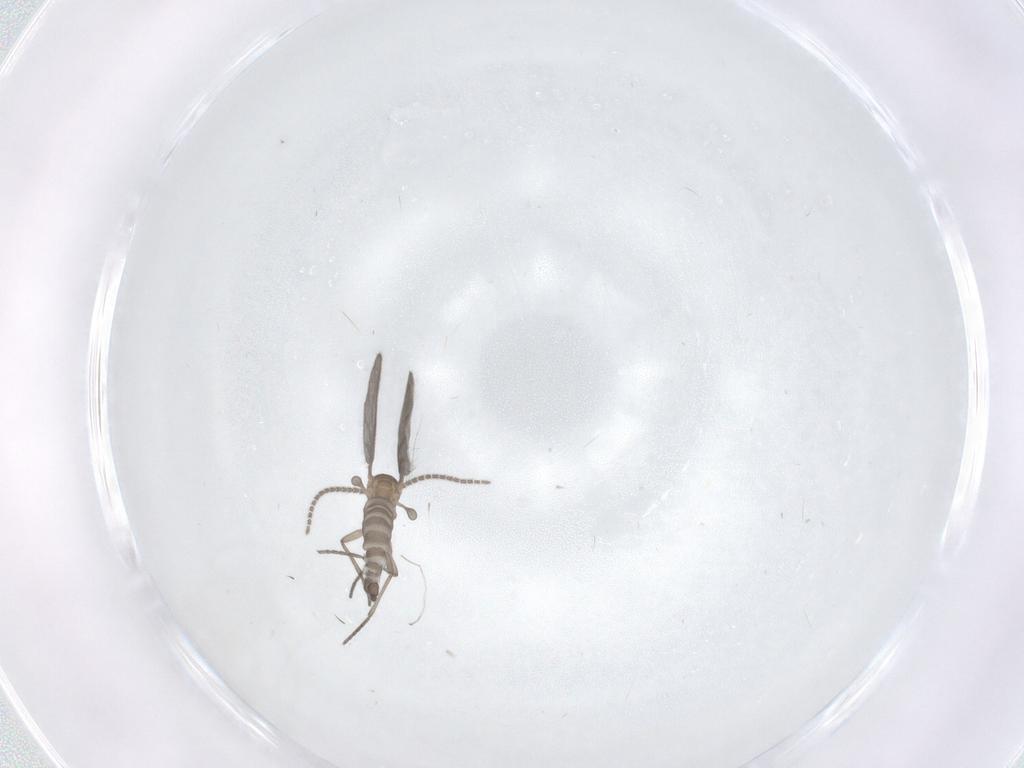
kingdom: Animalia
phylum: Arthropoda
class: Insecta
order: Diptera
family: Sciaridae
